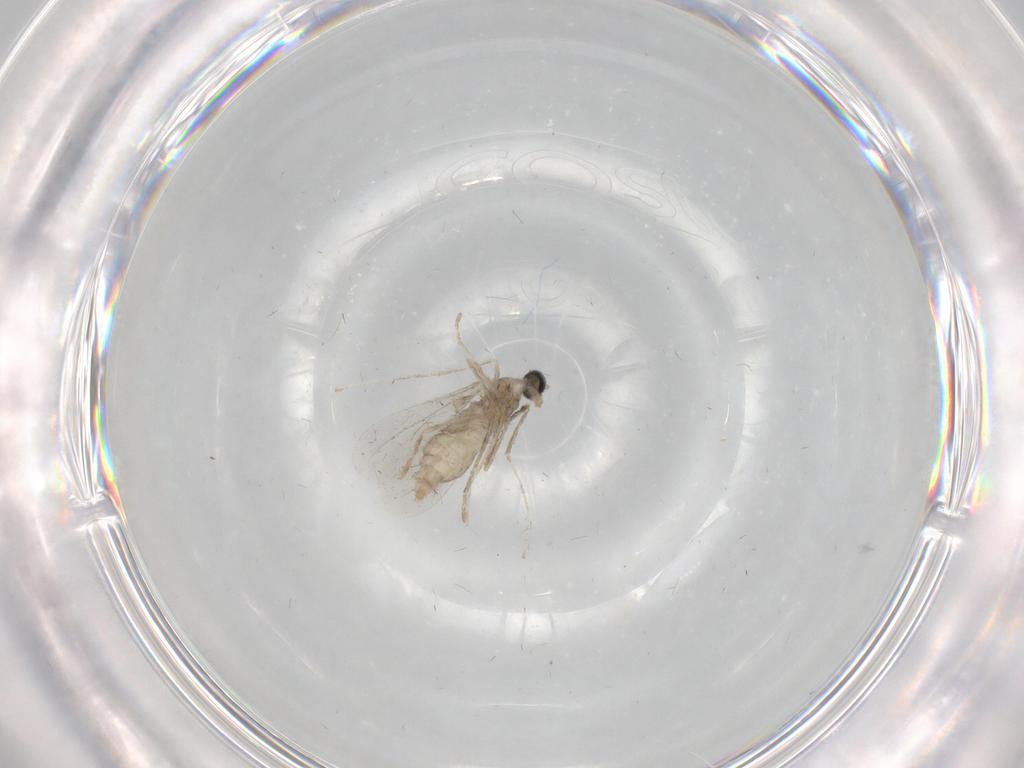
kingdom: Animalia
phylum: Arthropoda
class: Insecta
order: Diptera
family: Cecidomyiidae
